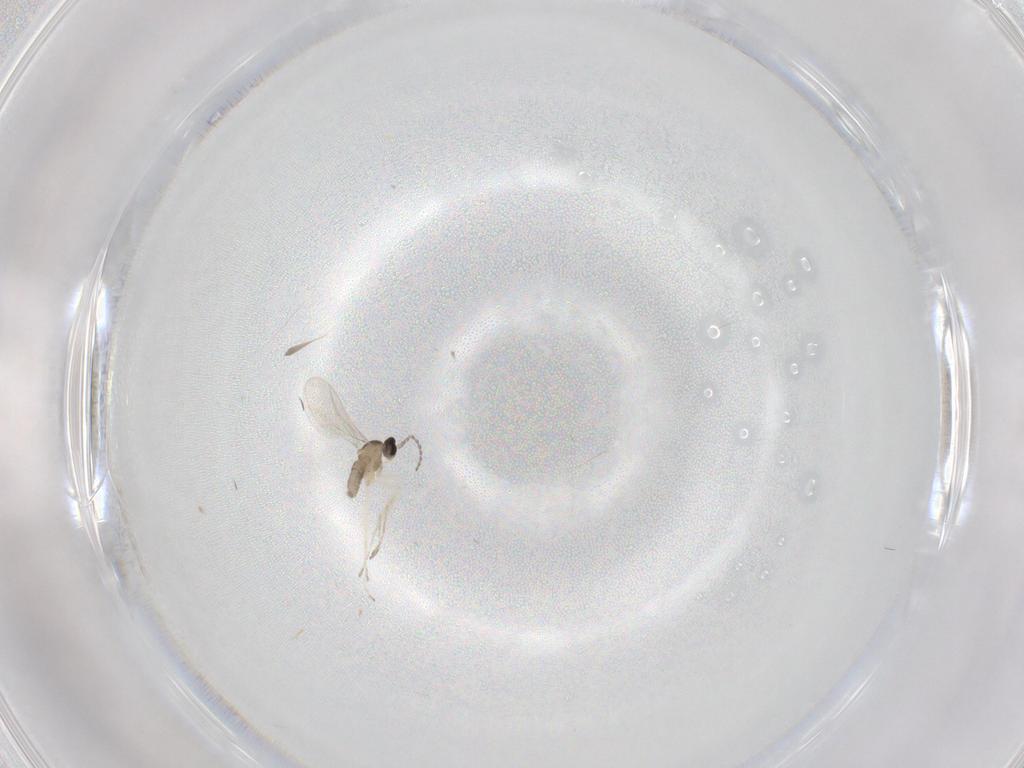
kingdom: Animalia
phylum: Arthropoda
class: Insecta
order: Diptera
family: Cecidomyiidae
